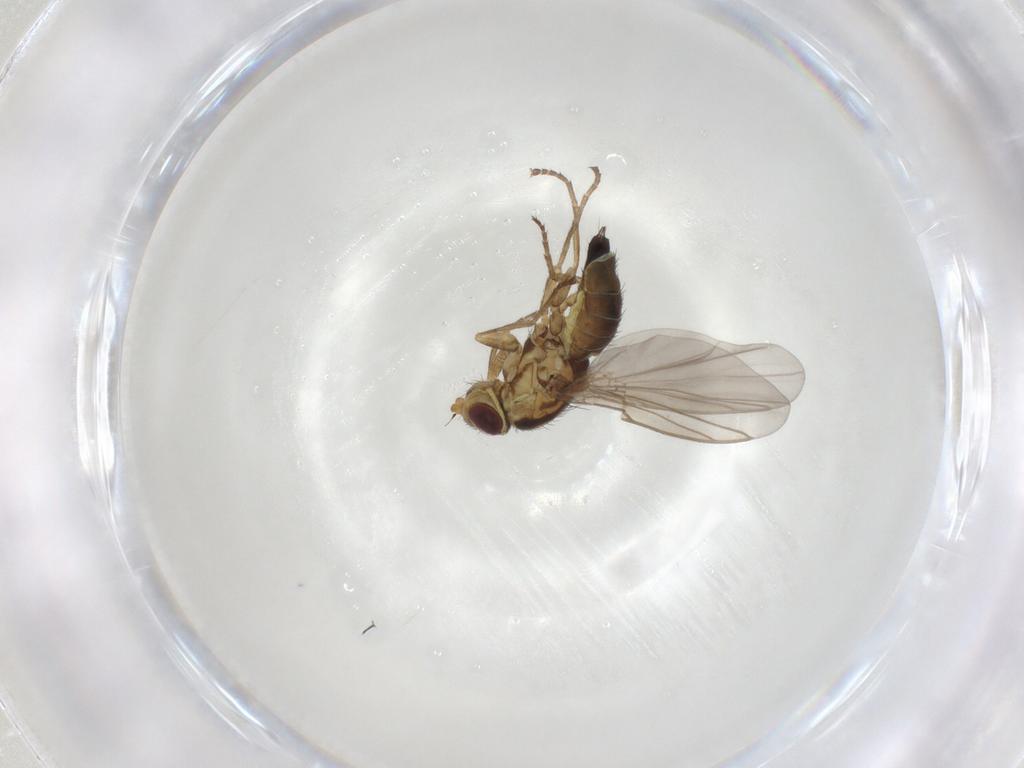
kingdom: Animalia
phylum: Arthropoda
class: Insecta
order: Diptera
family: Agromyzidae
